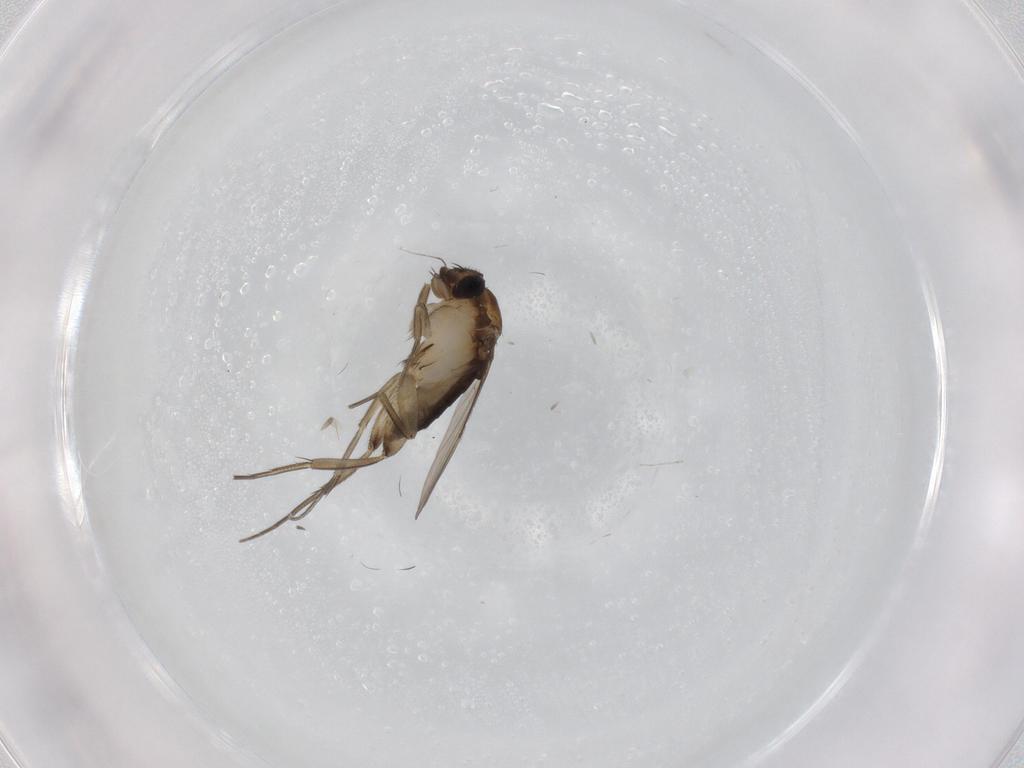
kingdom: Animalia
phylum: Arthropoda
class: Insecta
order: Diptera
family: Phoridae
